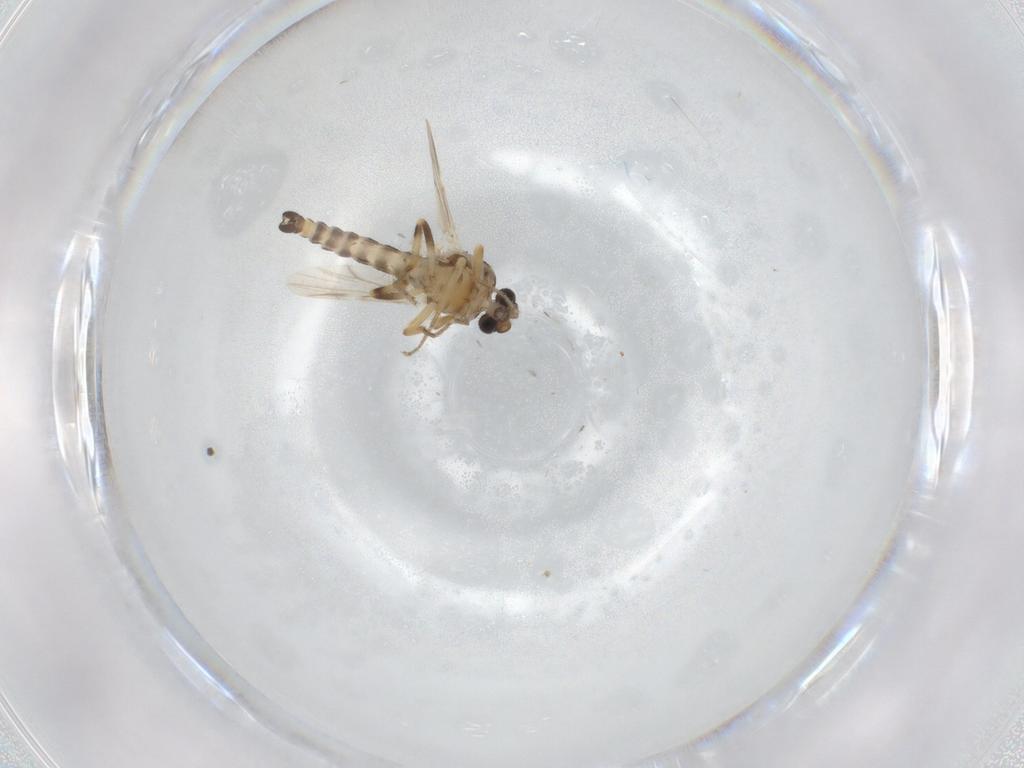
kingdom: Animalia
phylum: Arthropoda
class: Insecta
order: Diptera
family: Ceratopogonidae
